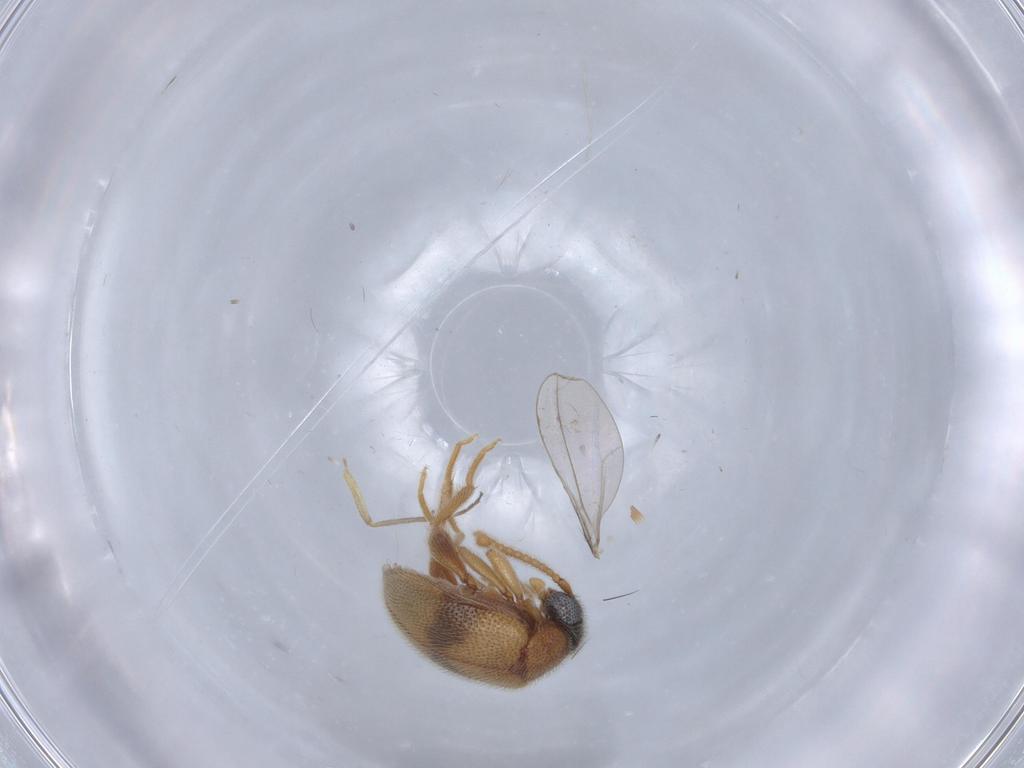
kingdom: Animalia
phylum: Arthropoda
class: Insecta
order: Coleoptera
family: Aderidae
